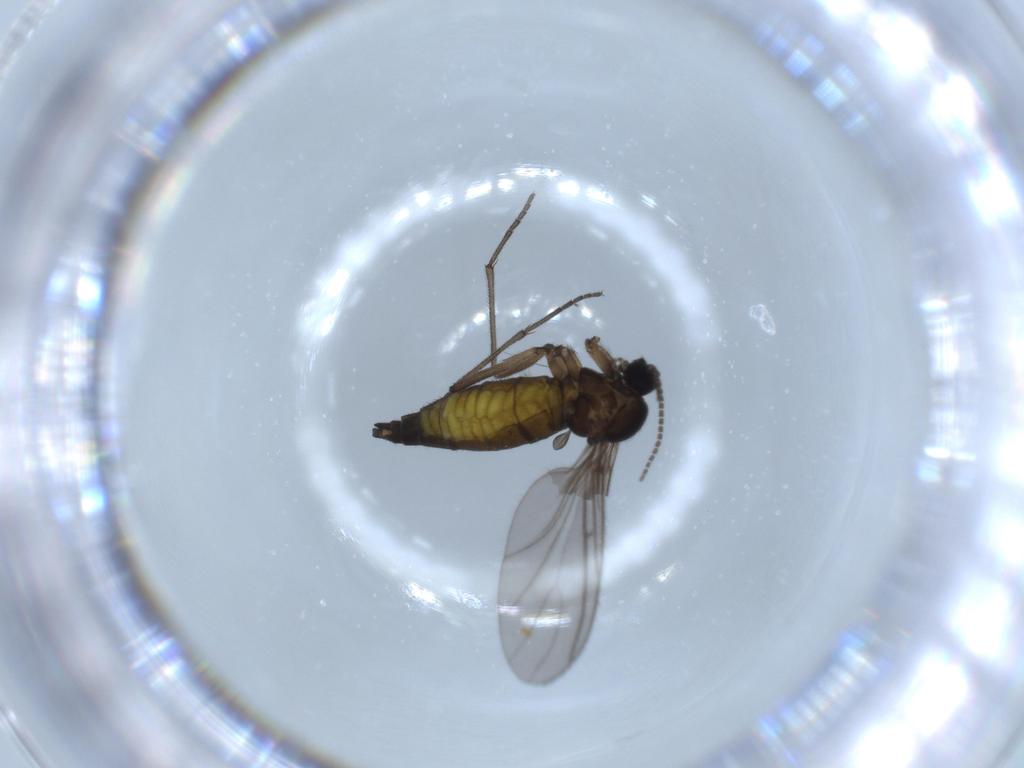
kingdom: Animalia
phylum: Arthropoda
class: Insecta
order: Diptera
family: Sciaridae
